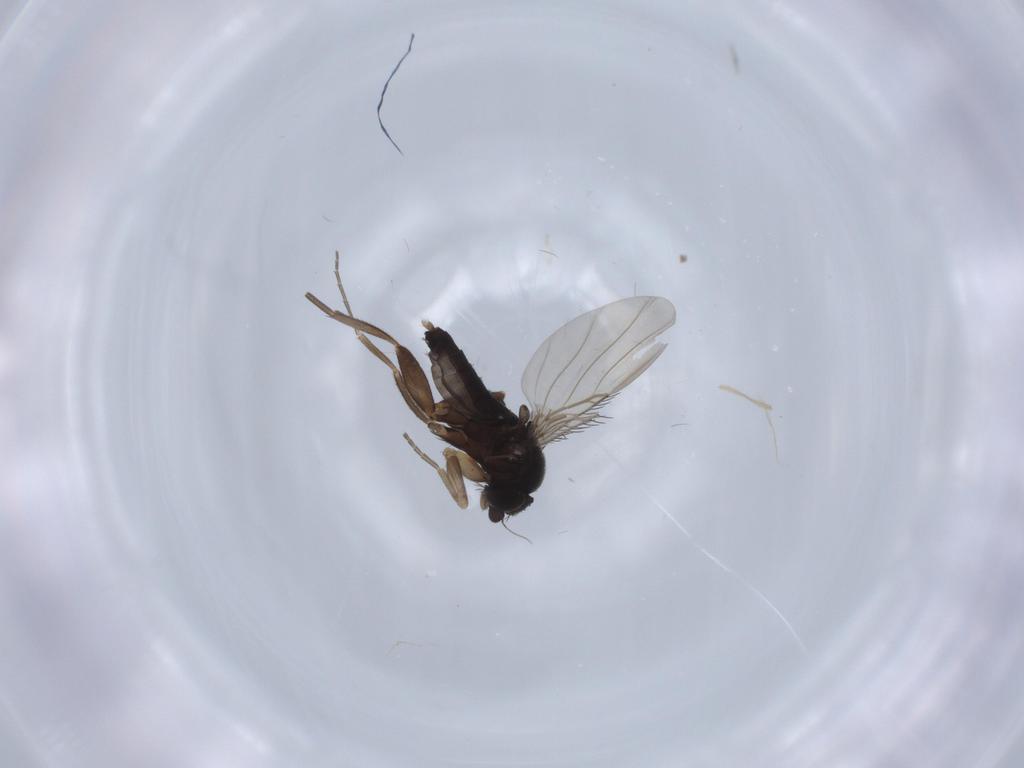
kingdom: Animalia
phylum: Arthropoda
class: Insecta
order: Diptera
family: Phoridae
